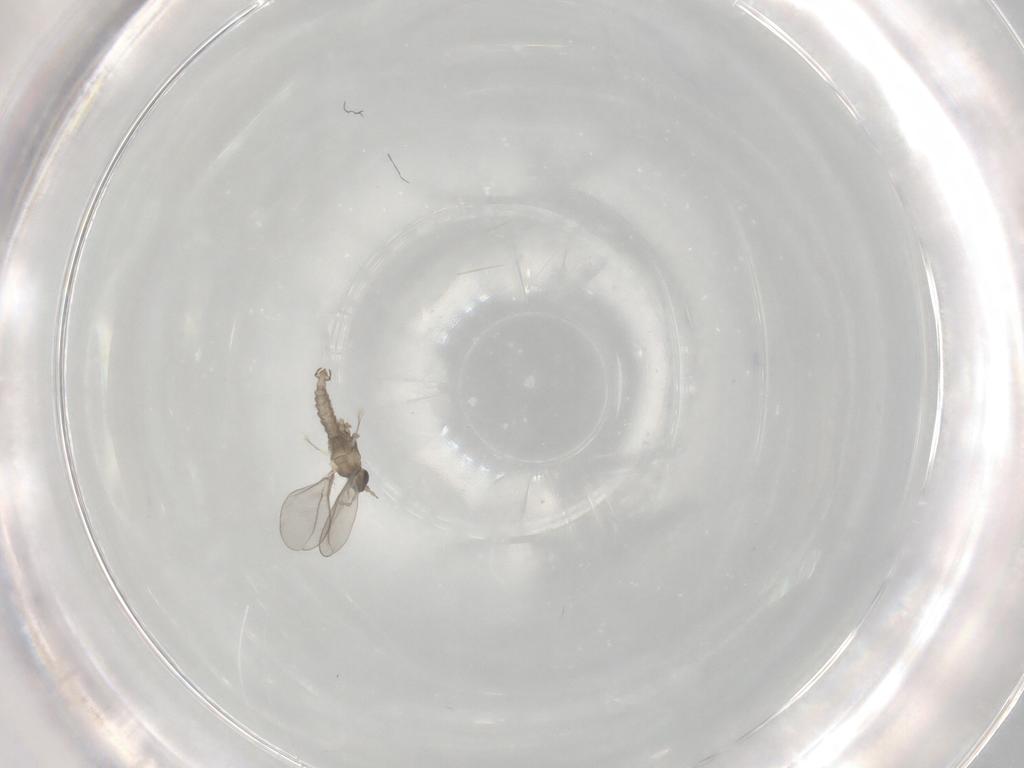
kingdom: Animalia
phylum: Arthropoda
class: Insecta
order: Diptera
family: Cecidomyiidae
